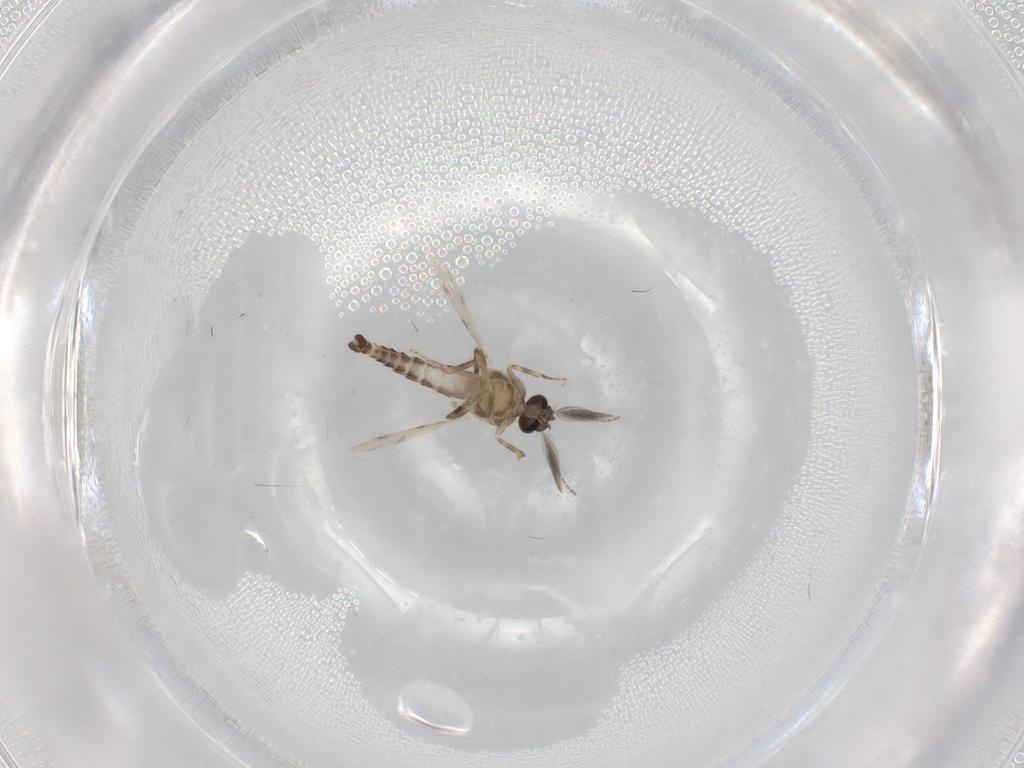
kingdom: Animalia
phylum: Arthropoda
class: Insecta
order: Diptera
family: Ceratopogonidae
